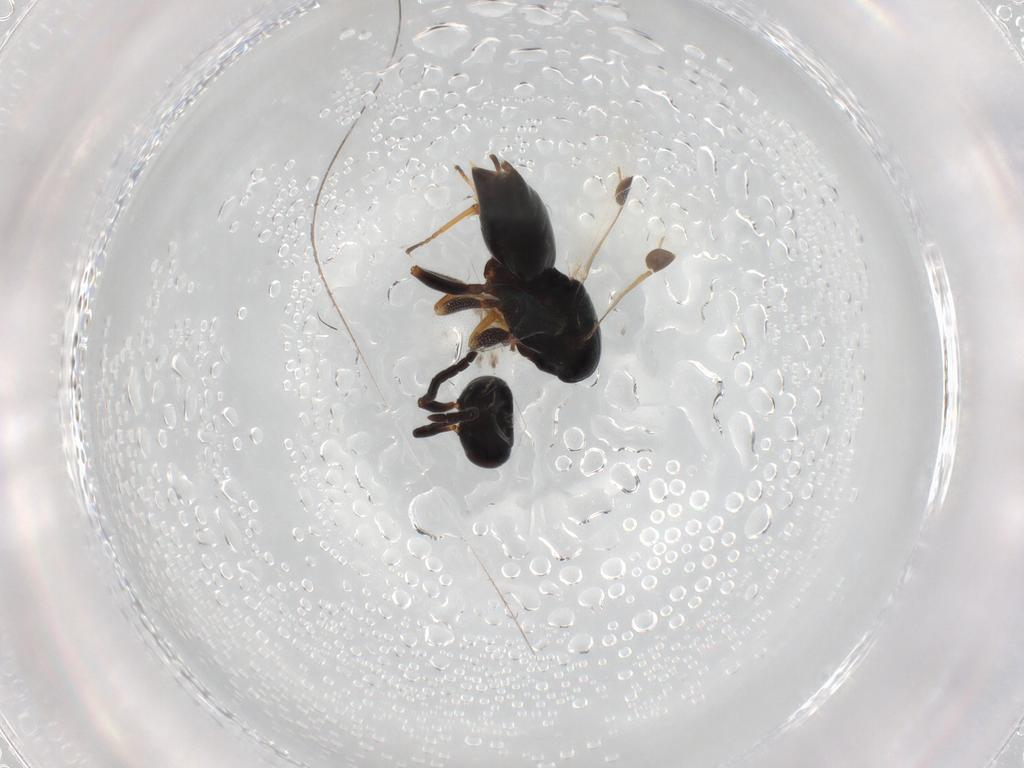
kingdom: Animalia
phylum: Arthropoda
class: Insecta
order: Hymenoptera
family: Megaspilidae
